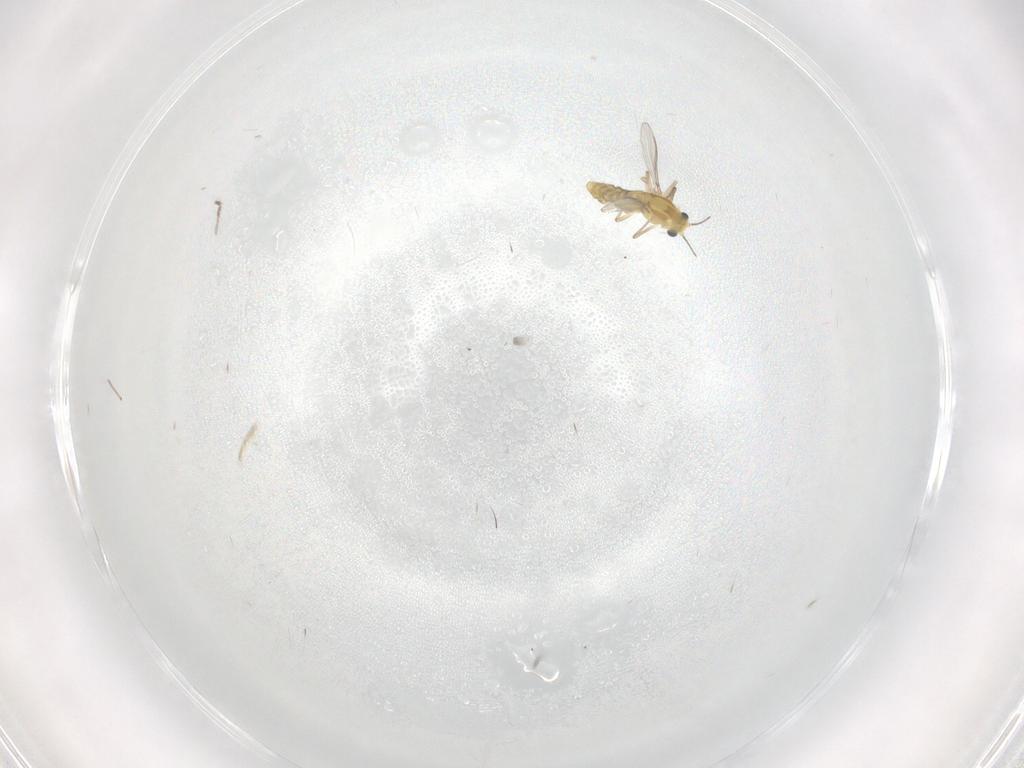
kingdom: Animalia
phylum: Arthropoda
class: Insecta
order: Diptera
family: Chironomidae
